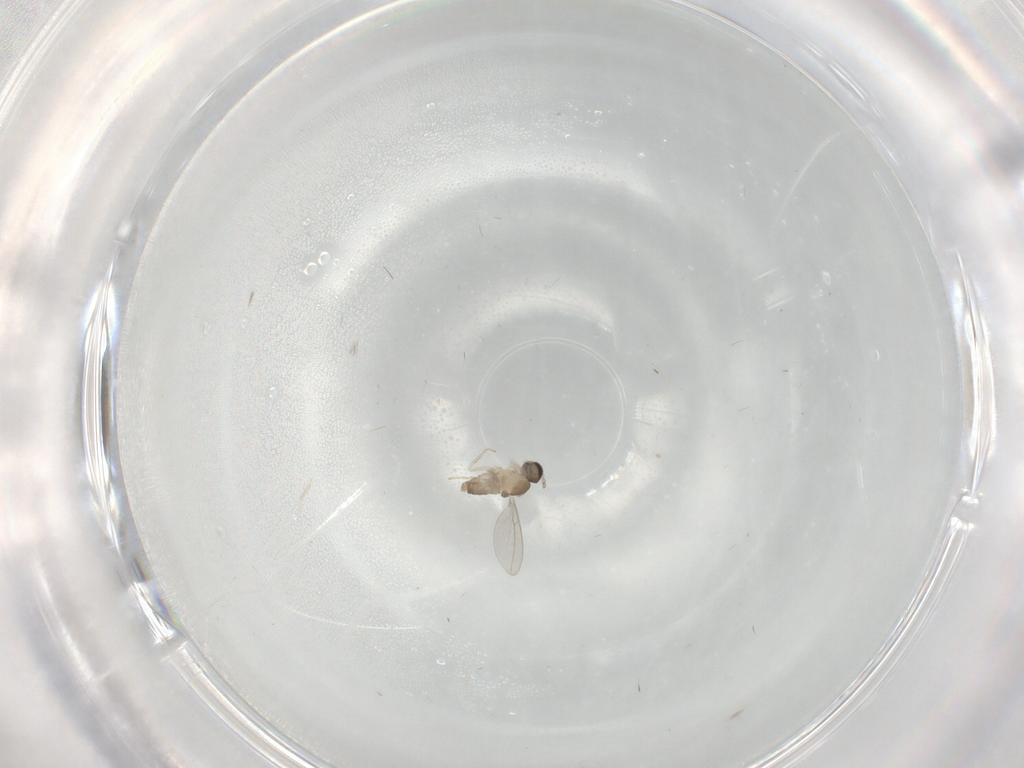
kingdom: Animalia
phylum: Arthropoda
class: Insecta
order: Diptera
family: Cecidomyiidae
